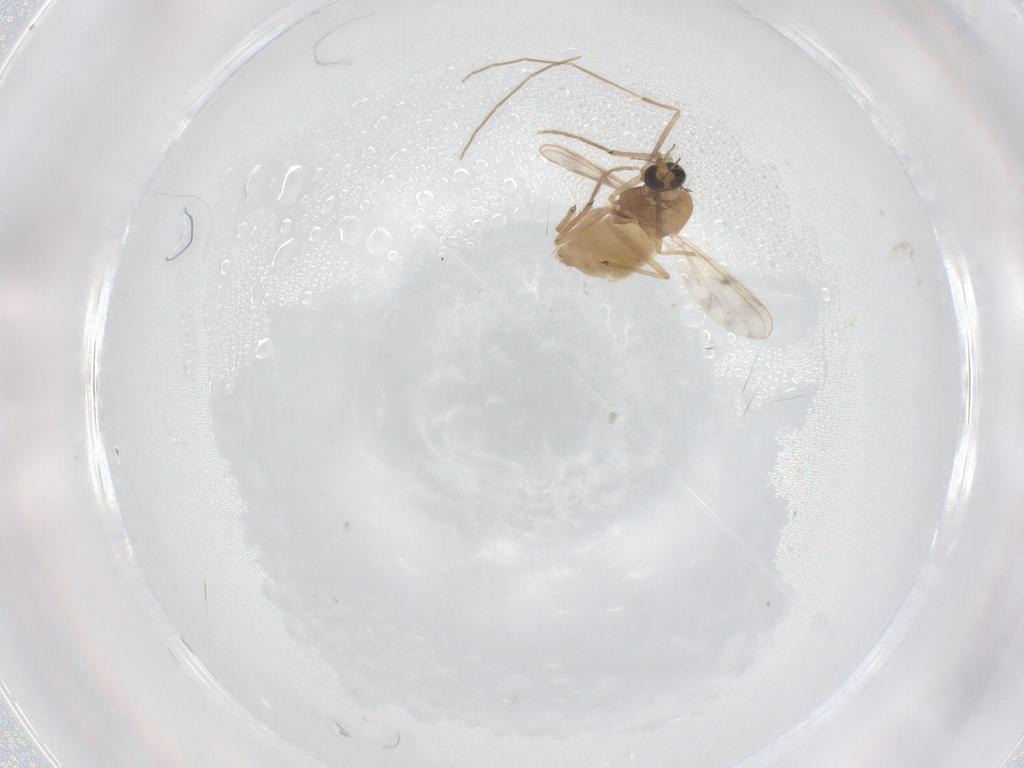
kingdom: Animalia
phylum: Arthropoda
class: Insecta
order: Diptera
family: Chironomidae
